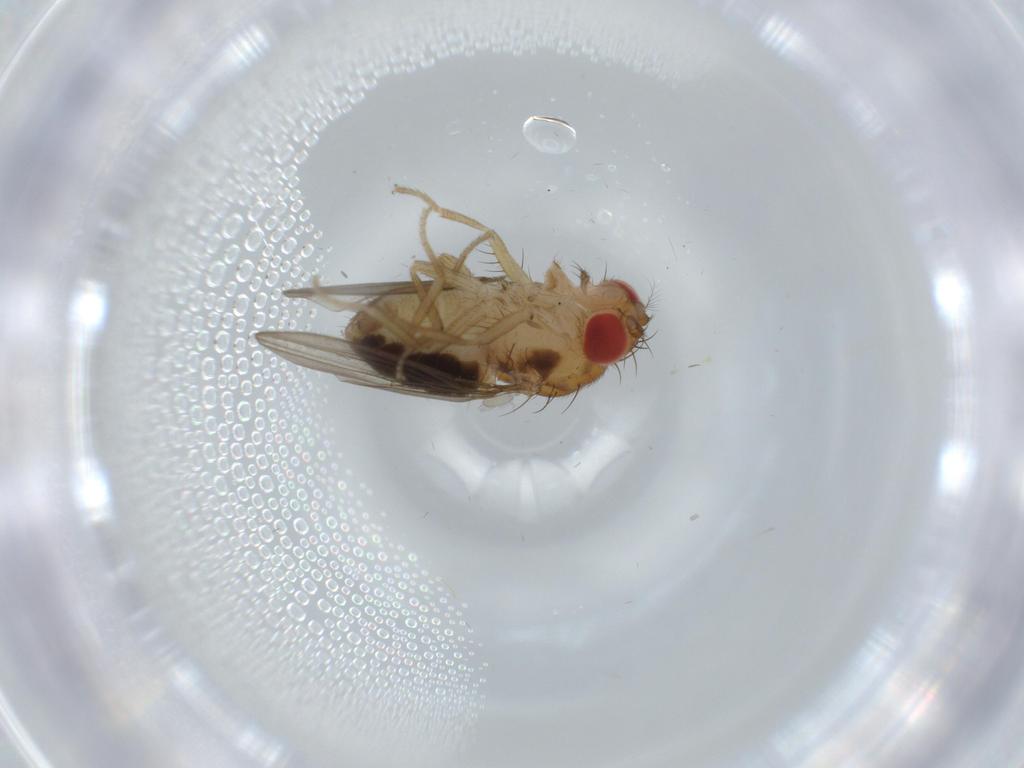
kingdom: Animalia
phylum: Arthropoda
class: Insecta
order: Diptera
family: Drosophilidae
